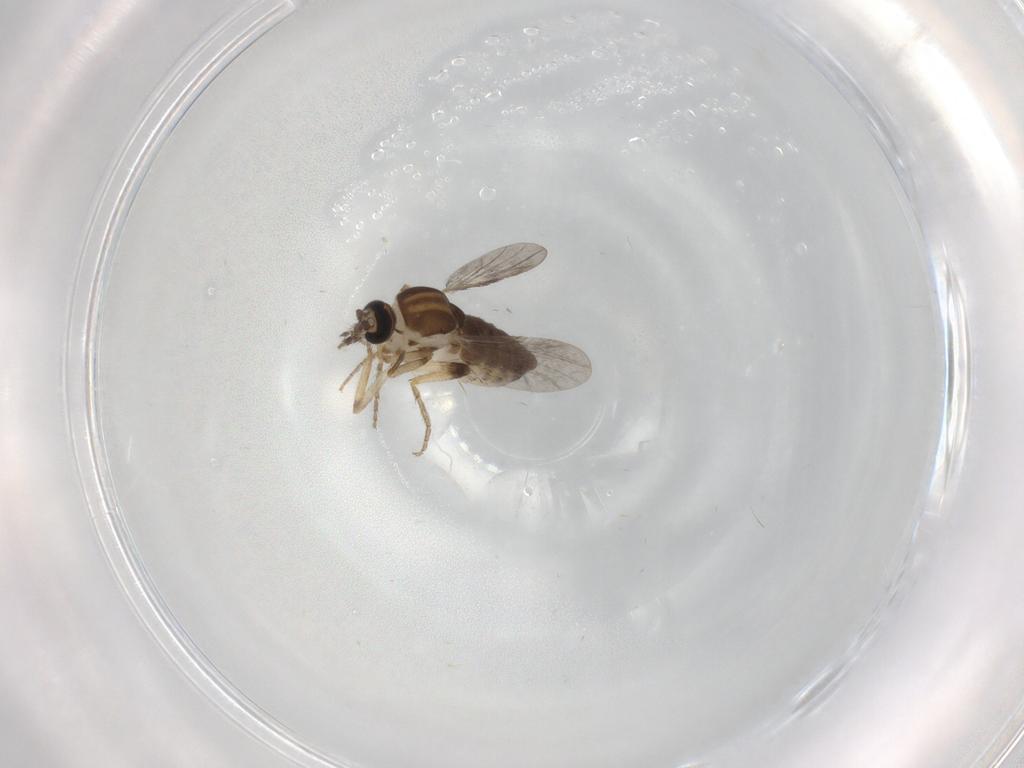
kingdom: Animalia
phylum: Arthropoda
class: Insecta
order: Diptera
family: Ceratopogonidae
